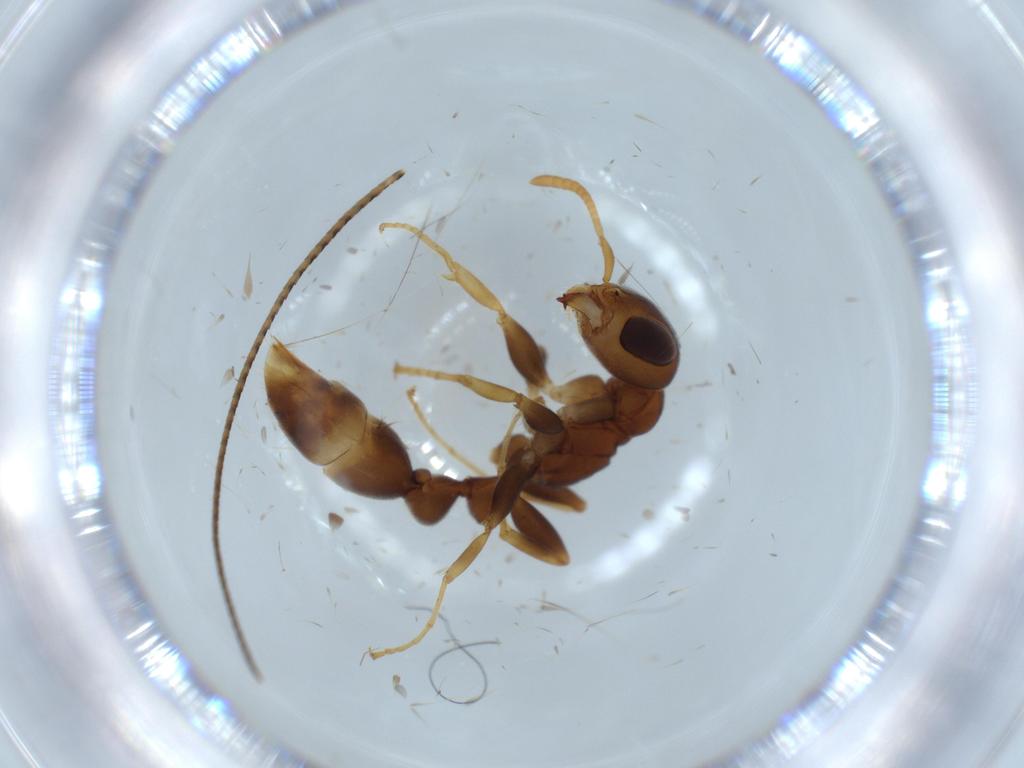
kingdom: Animalia
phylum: Arthropoda
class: Insecta
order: Hymenoptera
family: Formicidae
